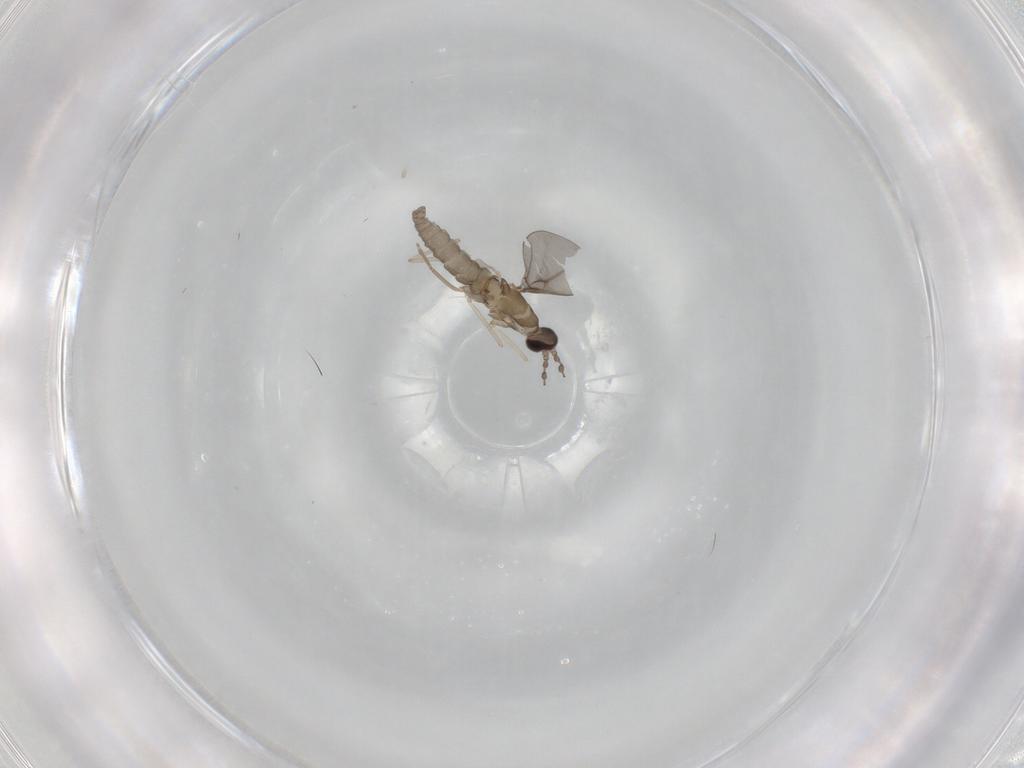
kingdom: Animalia
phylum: Arthropoda
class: Insecta
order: Diptera
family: Cecidomyiidae
